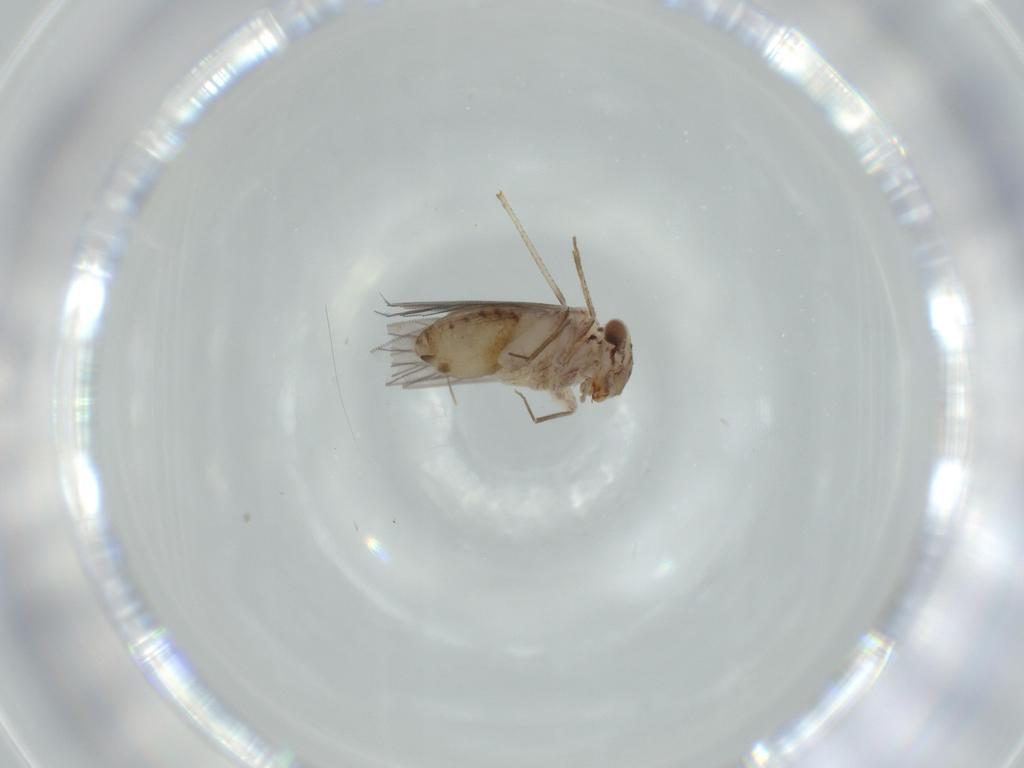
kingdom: Animalia
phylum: Arthropoda
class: Insecta
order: Psocodea
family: Lepidopsocidae
